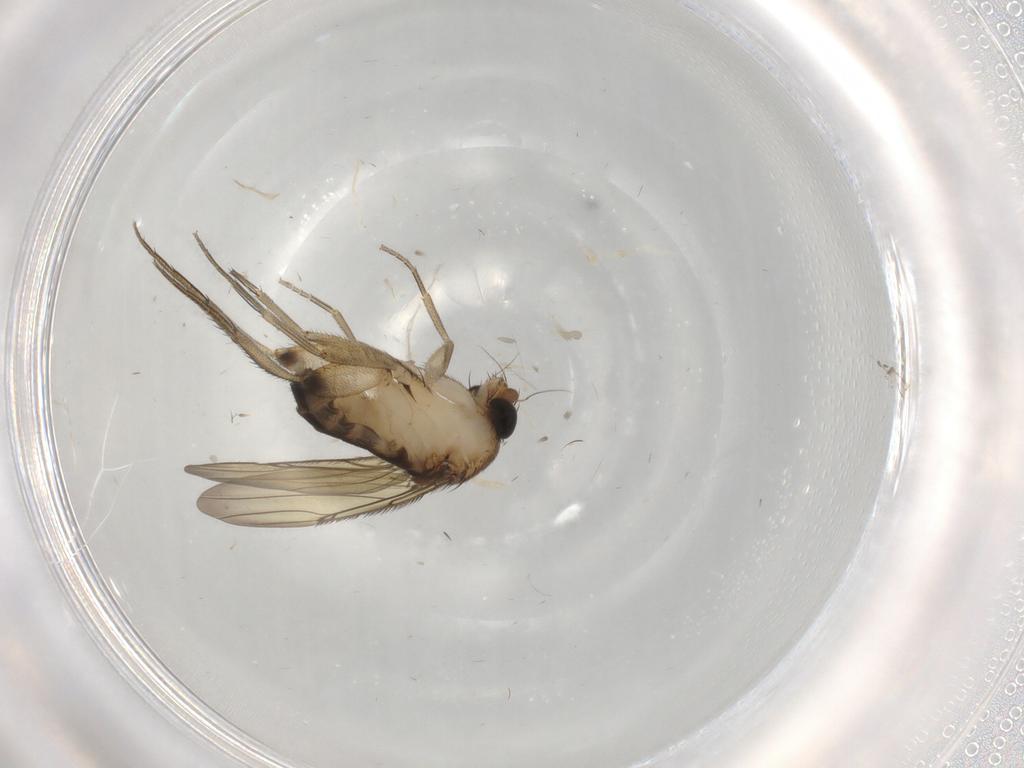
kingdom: Animalia
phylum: Arthropoda
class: Insecta
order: Diptera
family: Phoridae
